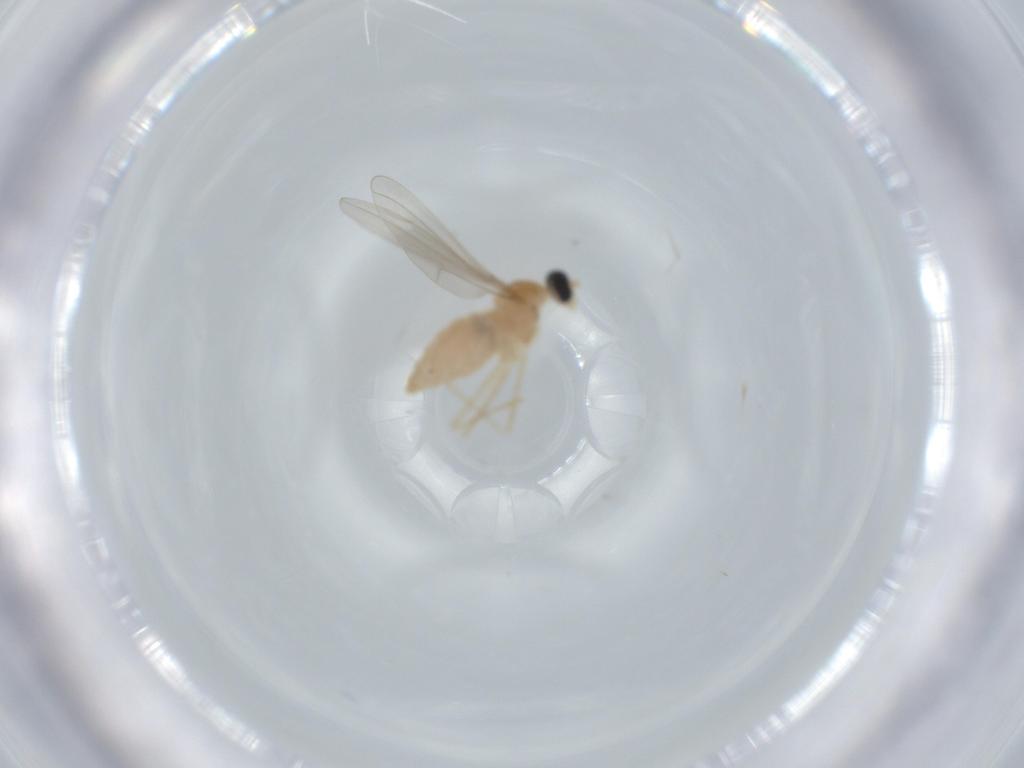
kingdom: Animalia
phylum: Arthropoda
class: Insecta
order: Diptera
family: Cecidomyiidae
